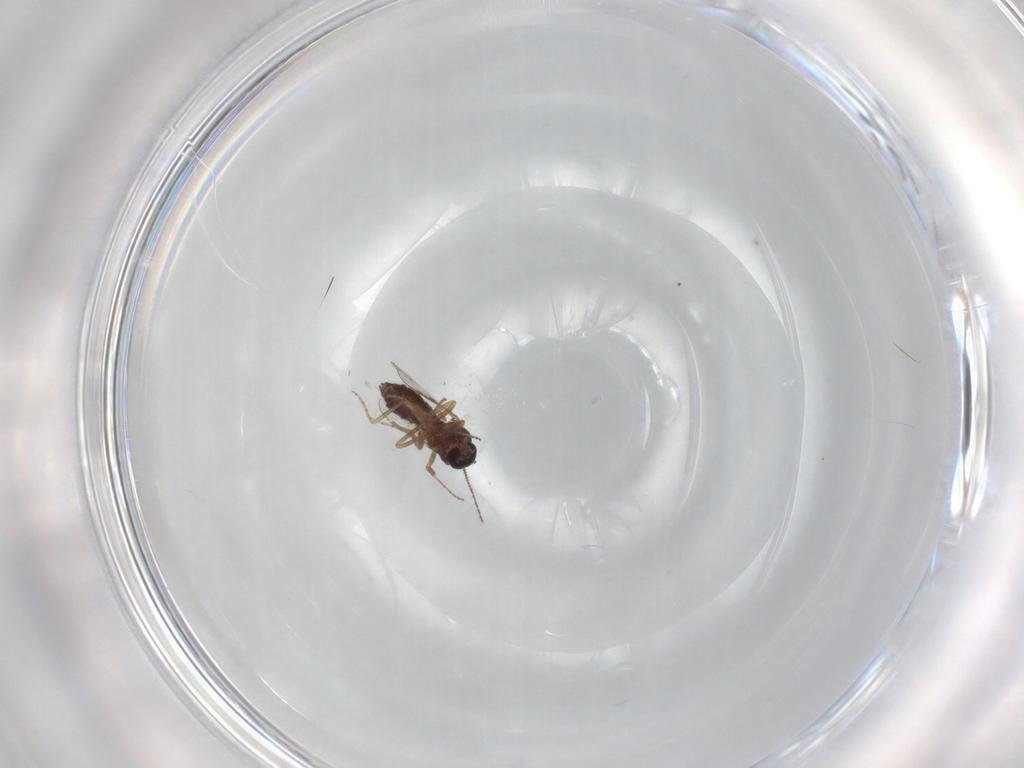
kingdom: Animalia
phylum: Arthropoda
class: Insecta
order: Diptera
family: Ceratopogonidae
